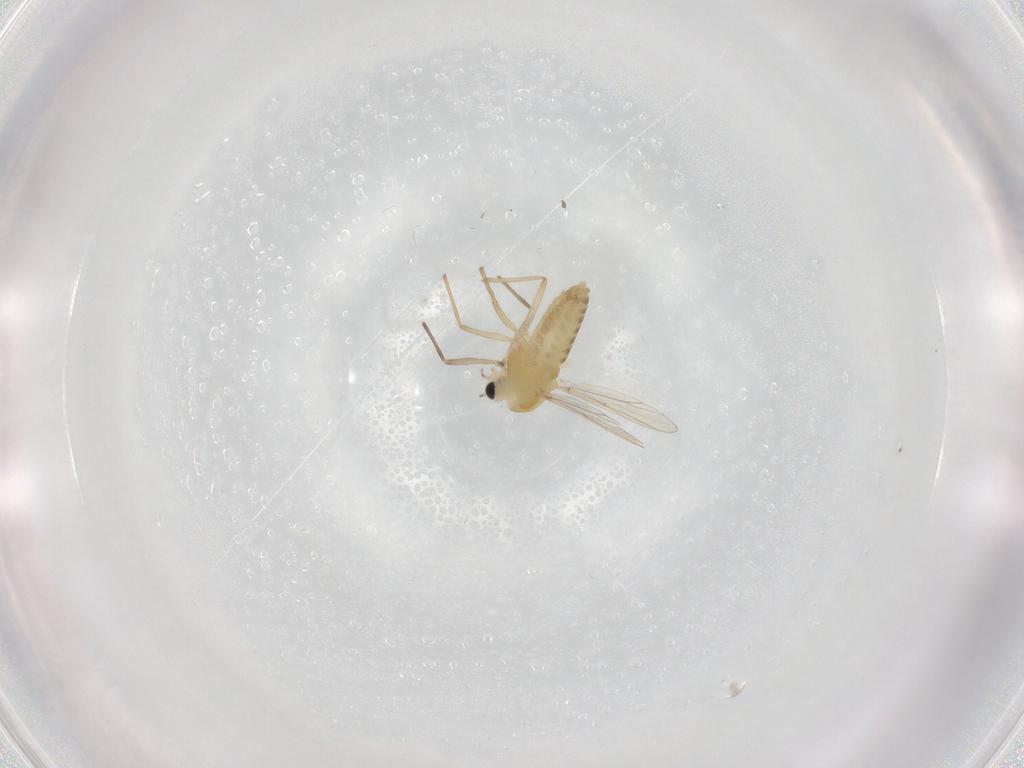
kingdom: Animalia
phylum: Arthropoda
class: Insecta
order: Diptera
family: Chironomidae
